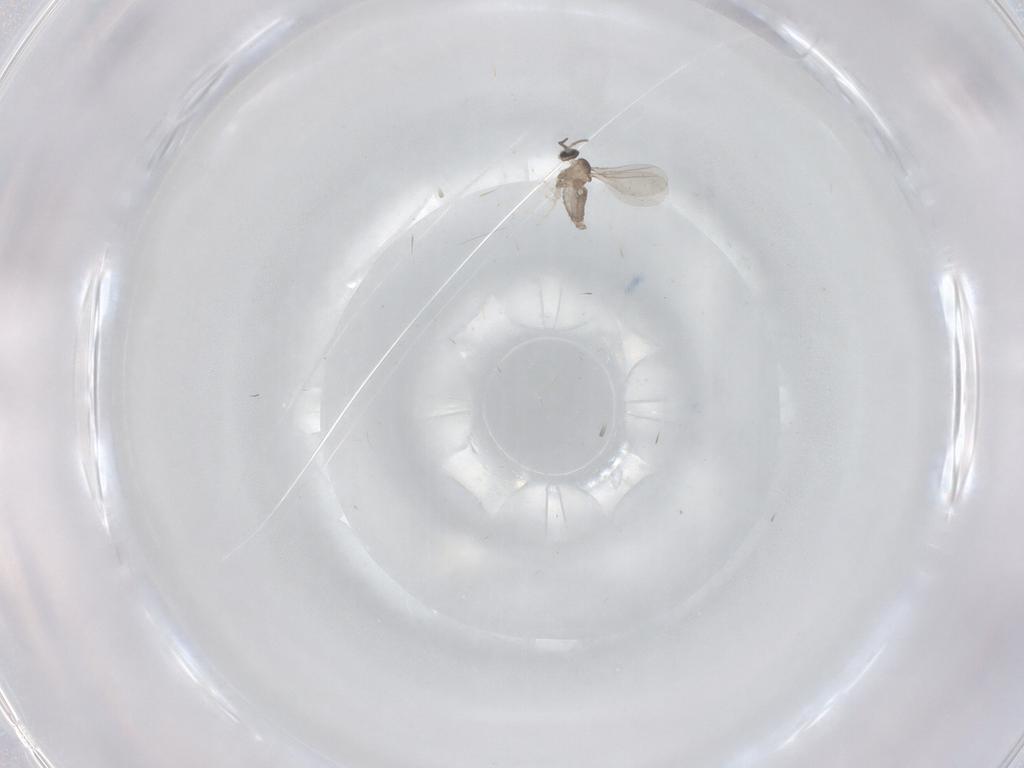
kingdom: Animalia
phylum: Arthropoda
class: Insecta
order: Diptera
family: Cecidomyiidae
